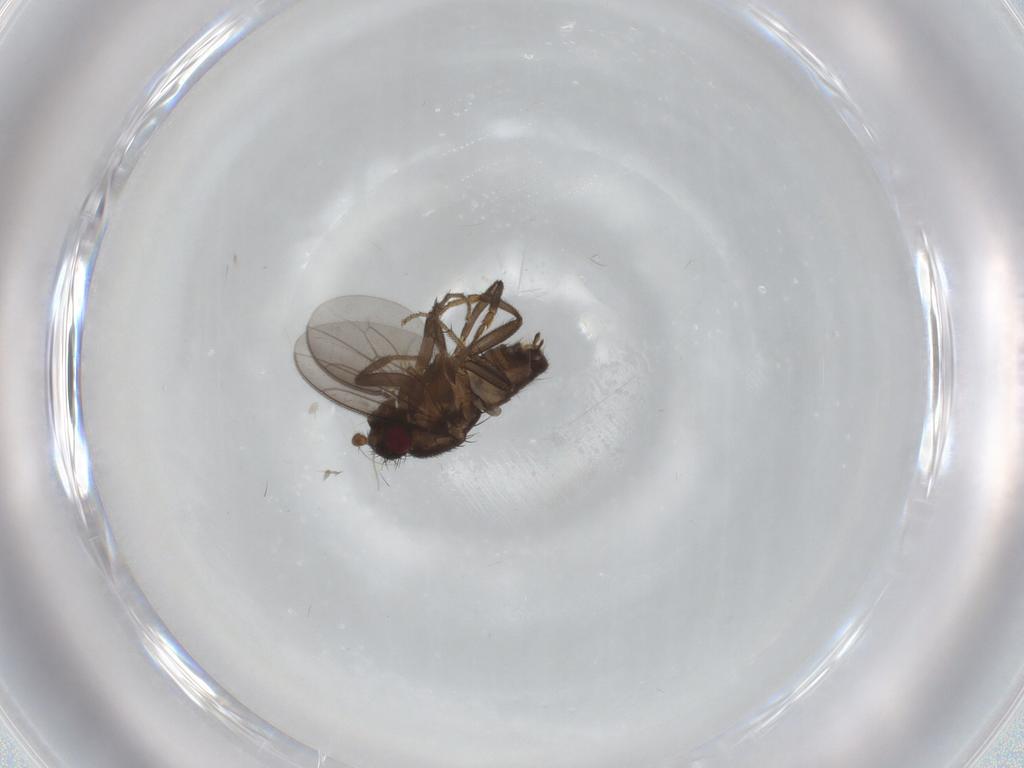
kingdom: Animalia
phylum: Arthropoda
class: Insecta
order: Diptera
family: Sphaeroceridae
